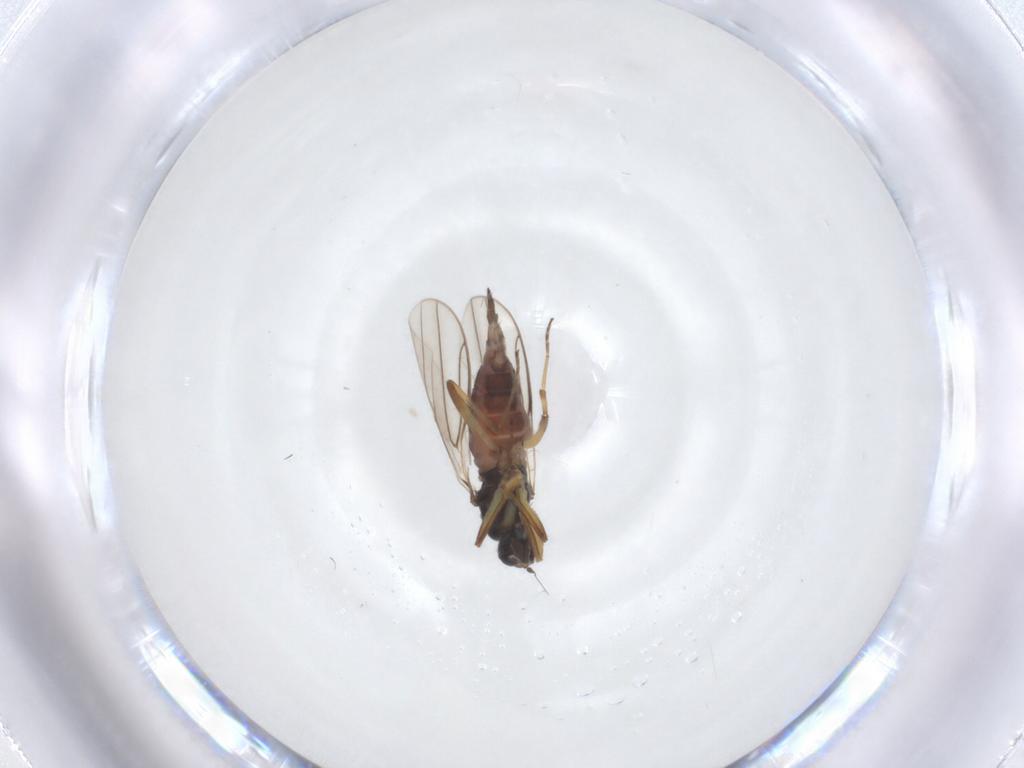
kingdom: Animalia
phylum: Arthropoda
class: Insecta
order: Diptera
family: Hybotidae
